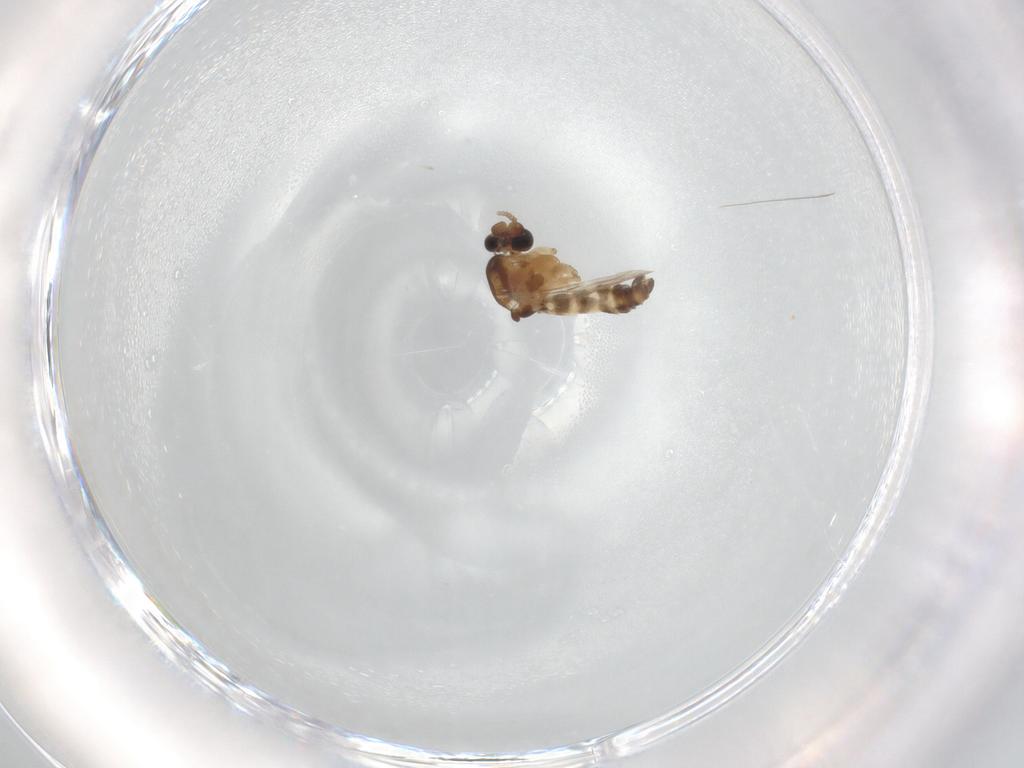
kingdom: Animalia
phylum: Arthropoda
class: Insecta
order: Diptera
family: Ceratopogonidae
